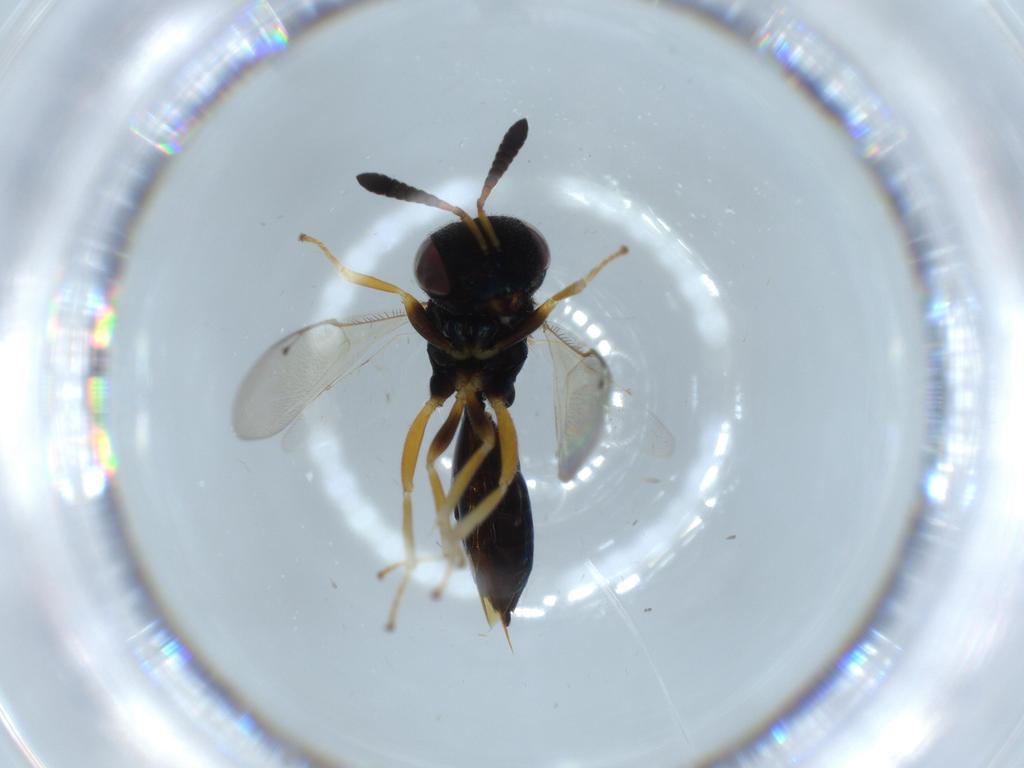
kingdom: Animalia
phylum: Arthropoda
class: Insecta
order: Hymenoptera
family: Agaonidae
